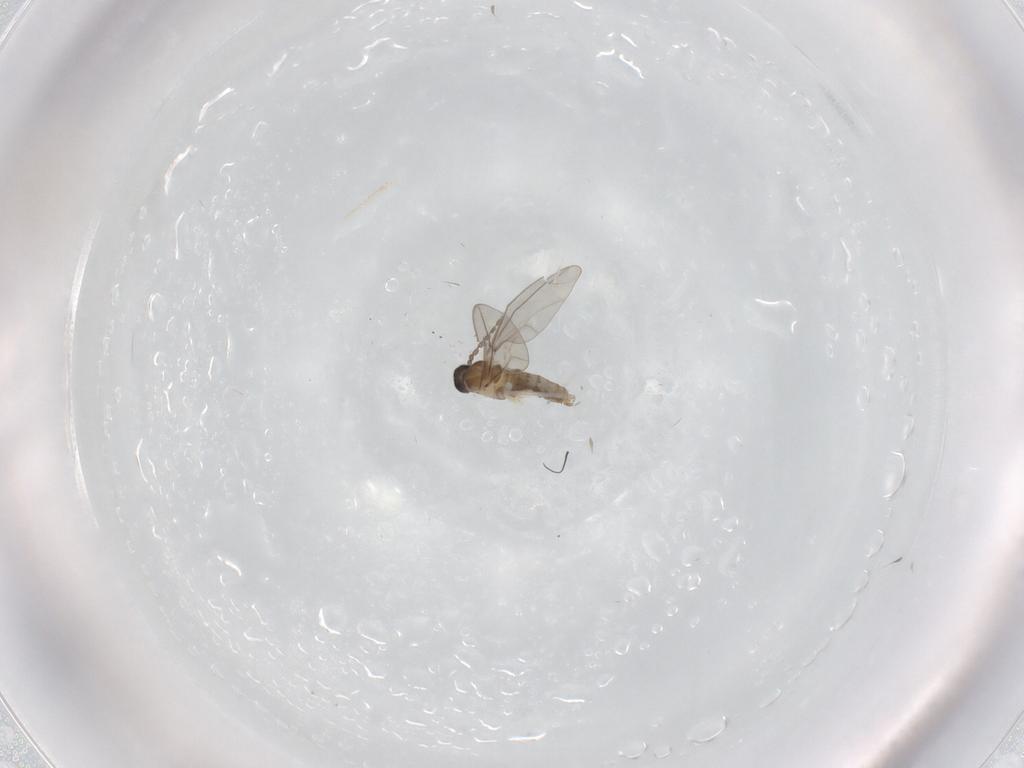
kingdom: Animalia
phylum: Arthropoda
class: Insecta
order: Diptera
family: Cecidomyiidae
